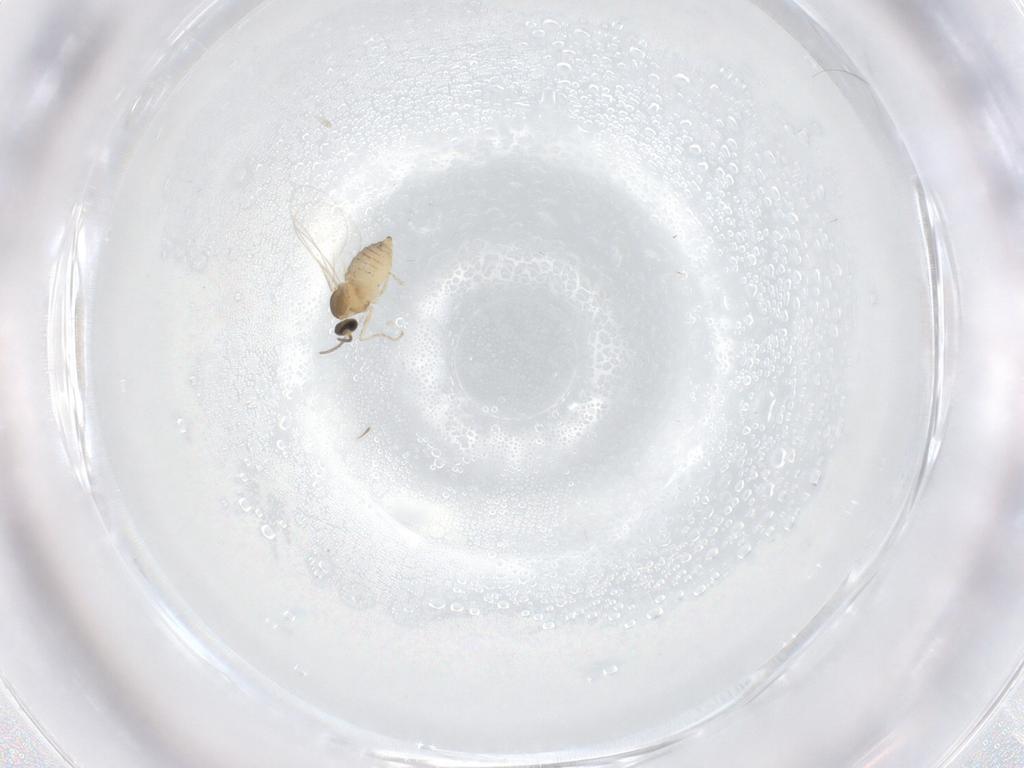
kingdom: Animalia
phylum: Arthropoda
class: Insecta
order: Diptera
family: Cecidomyiidae
